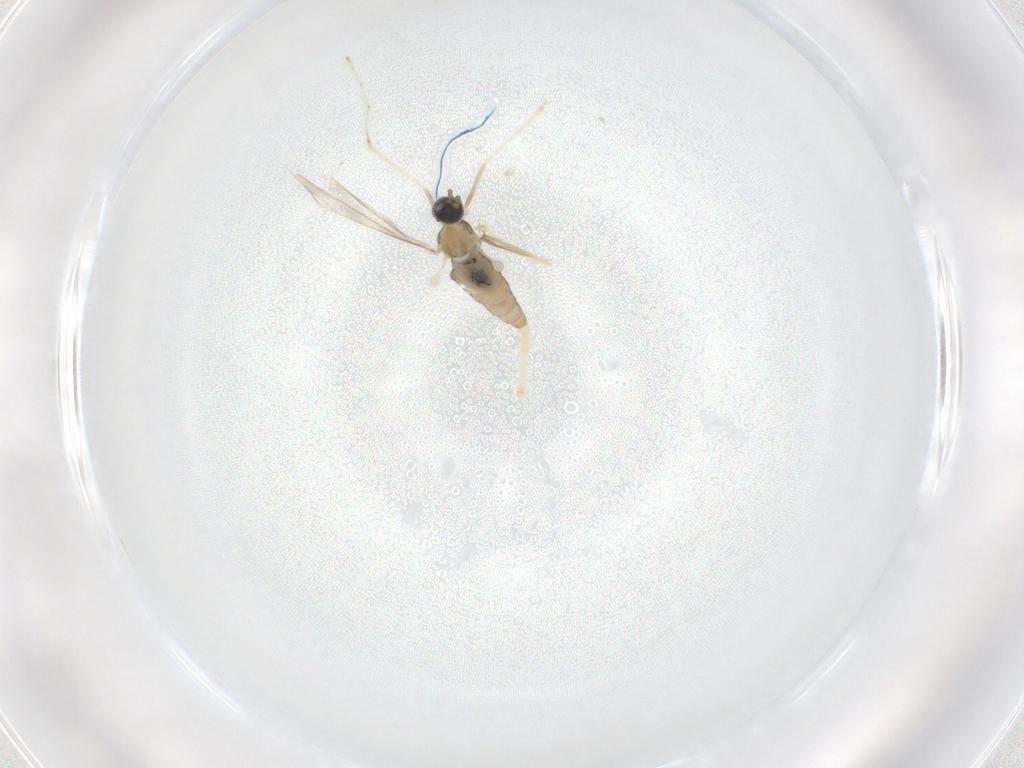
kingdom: Animalia
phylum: Arthropoda
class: Insecta
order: Diptera
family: Cecidomyiidae
